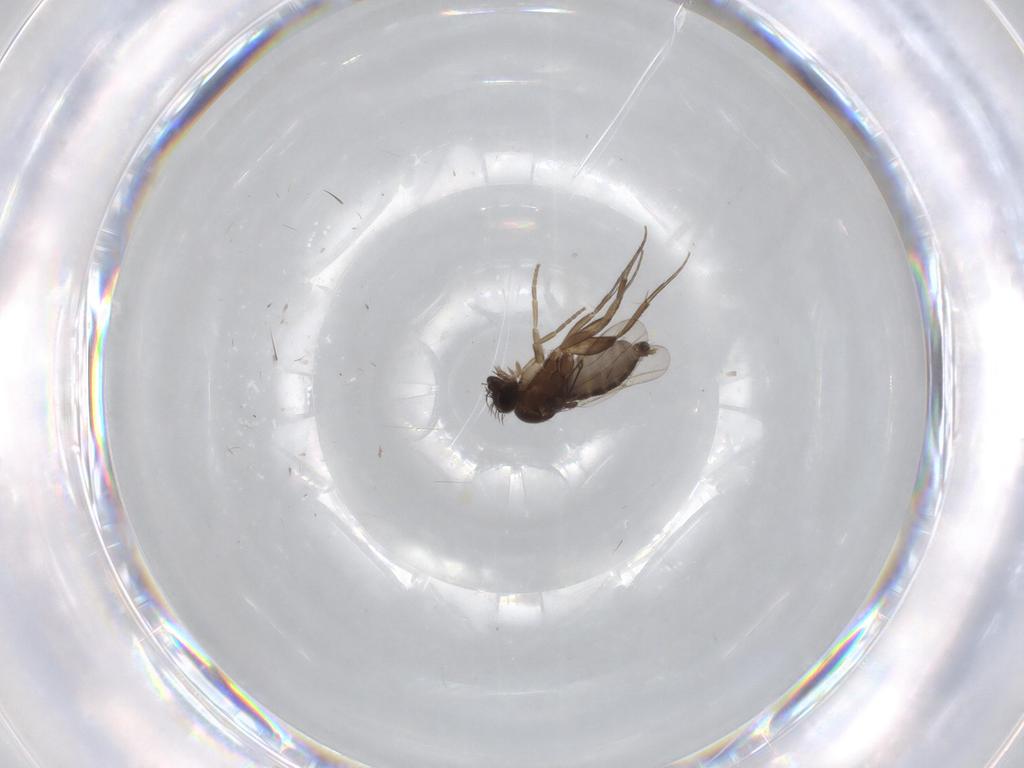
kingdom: Animalia
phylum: Arthropoda
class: Insecta
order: Diptera
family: Phoridae
